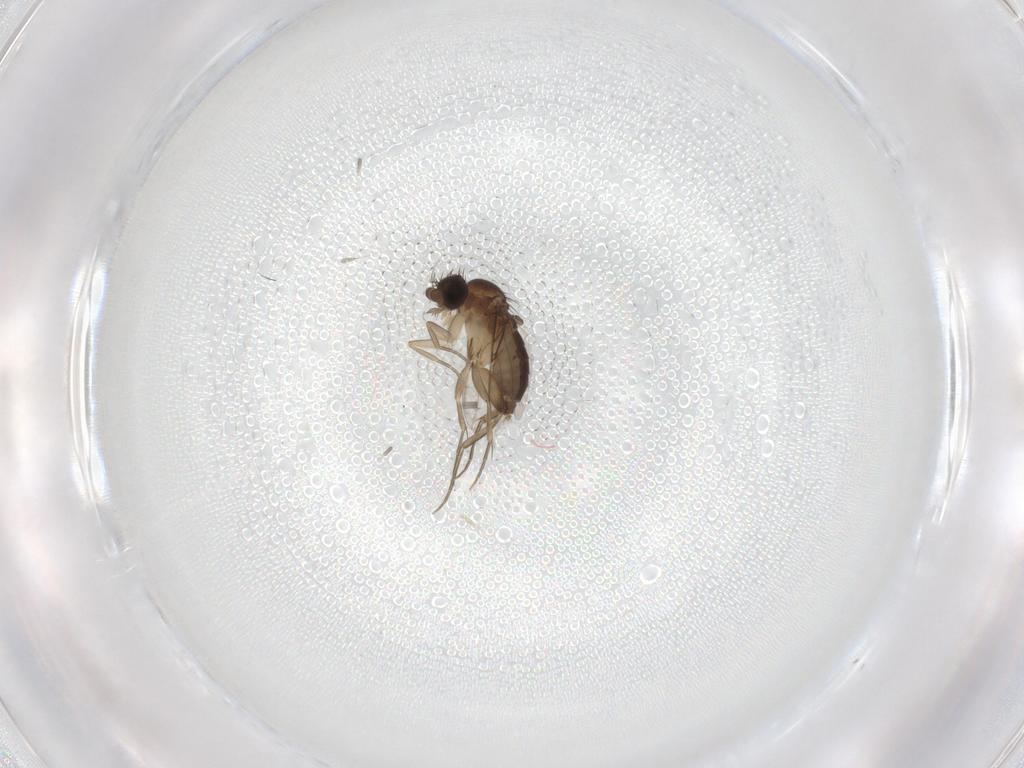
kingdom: Animalia
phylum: Arthropoda
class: Insecta
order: Diptera
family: Phoridae
